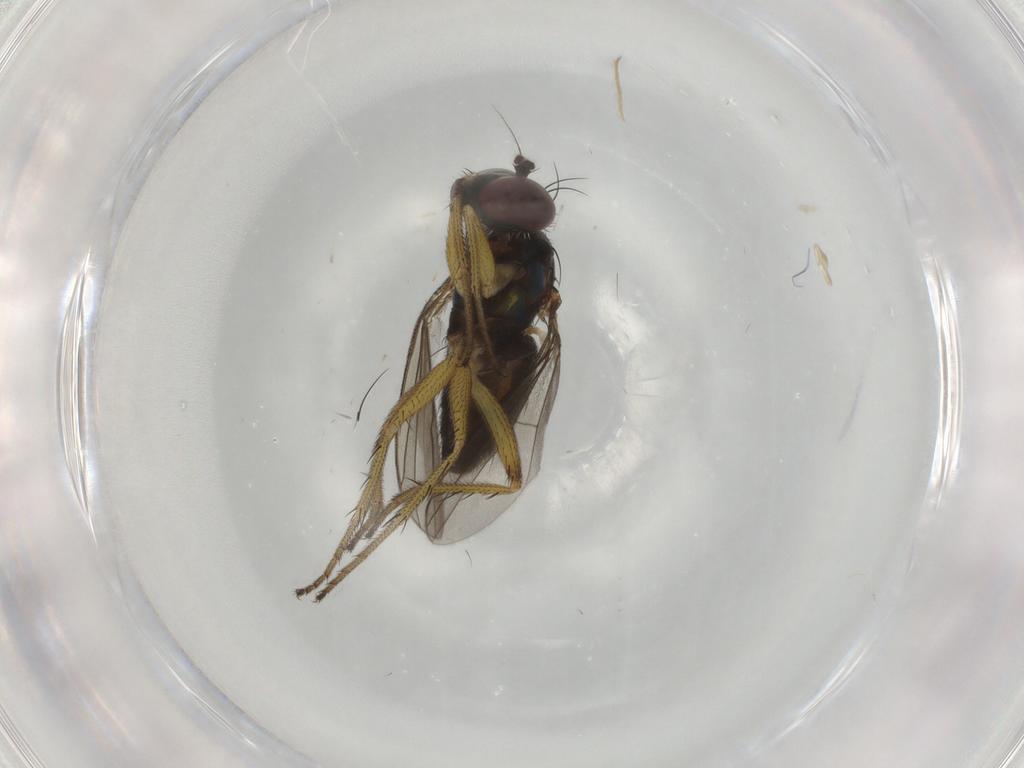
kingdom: Animalia
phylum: Arthropoda
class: Insecta
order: Diptera
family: Dolichopodidae
